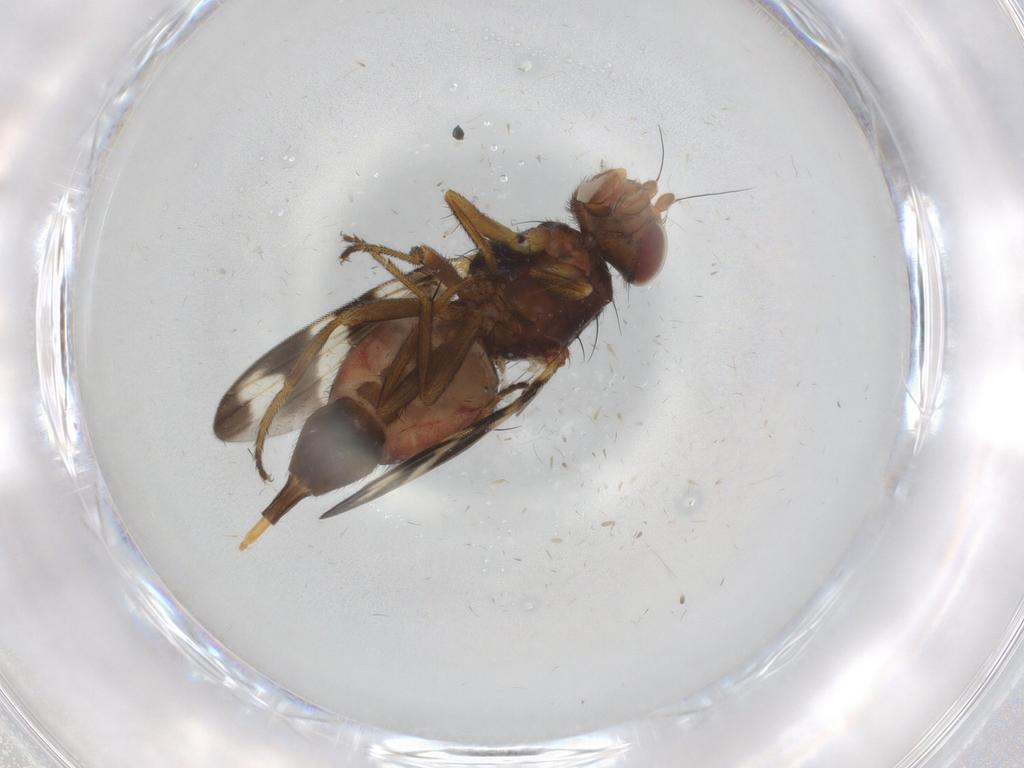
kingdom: Animalia
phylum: Arthropoda
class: Insecta
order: Diptera
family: Ulidiidae
